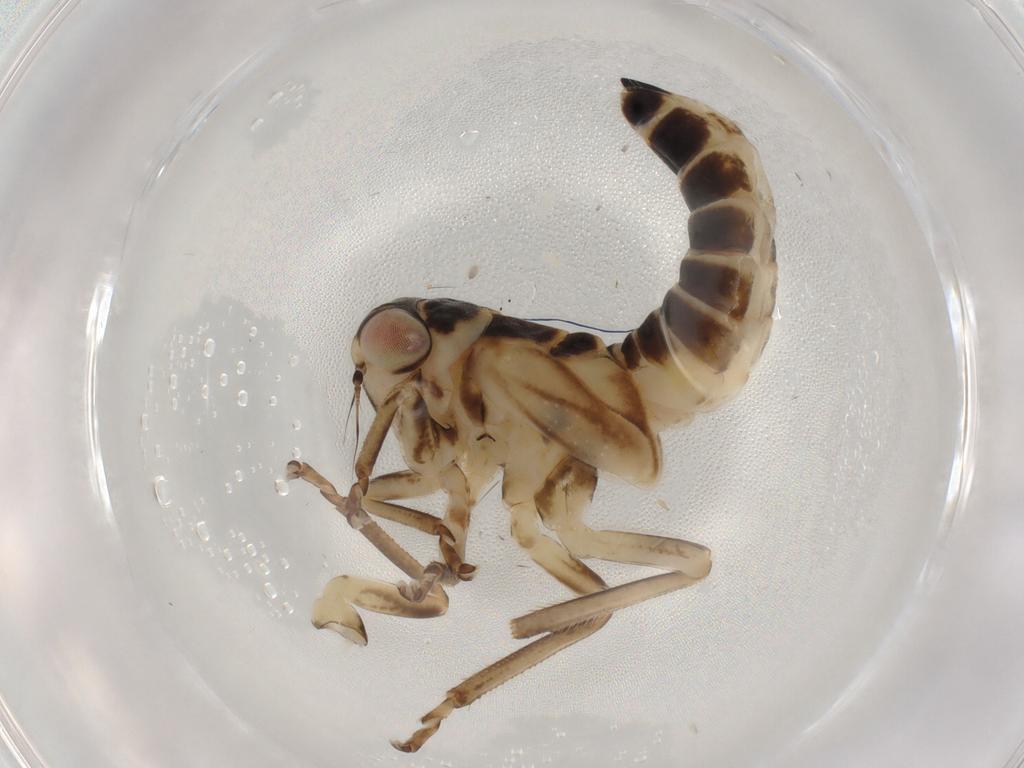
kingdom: Animalia
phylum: Arthropoda
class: Insecta
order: Hemiptera
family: Cicadellidae
